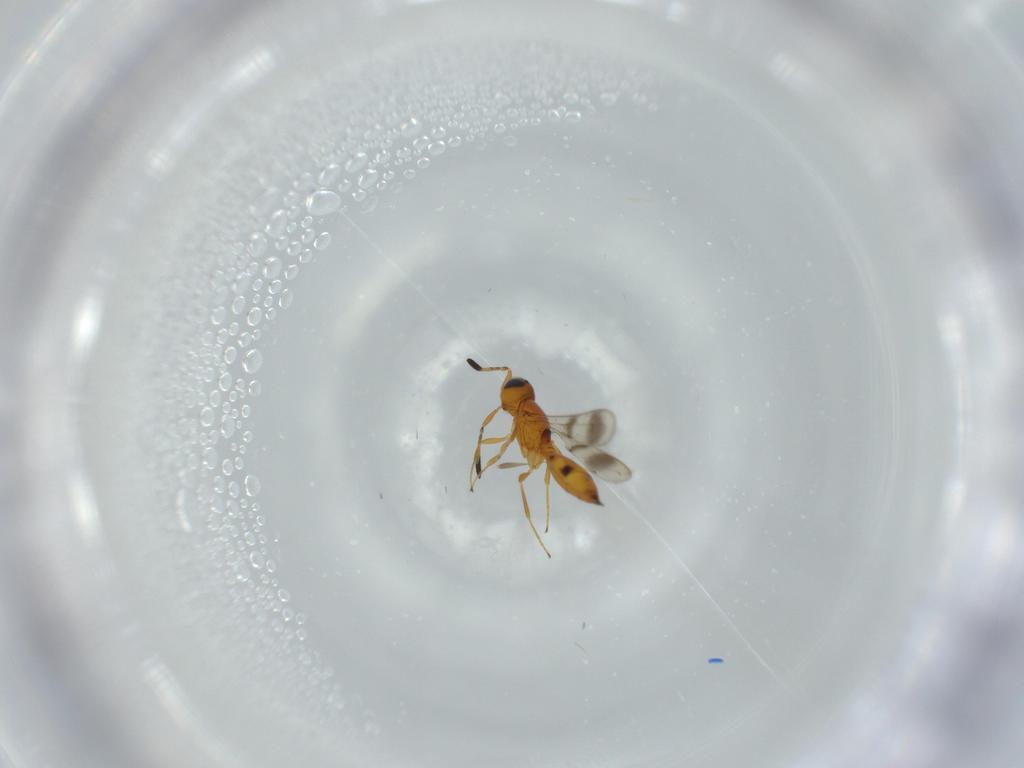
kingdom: Animalia
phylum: Arthropoda
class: Insecta
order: Hymenoptera
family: Scelionidae
